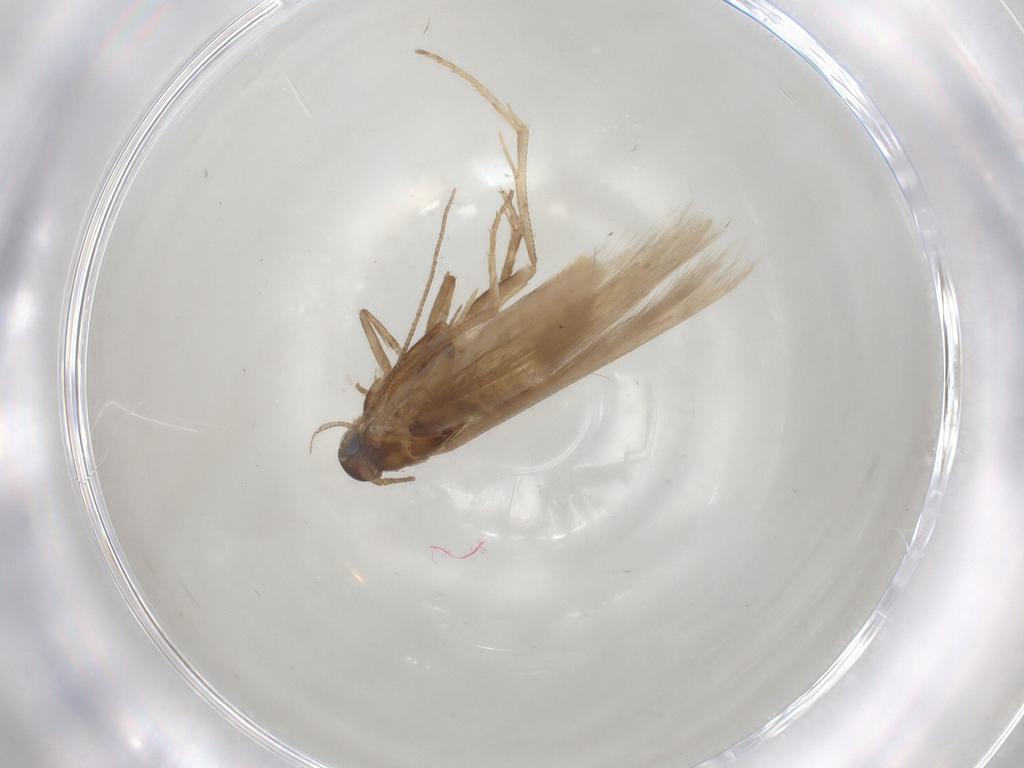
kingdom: Animalia
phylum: Arthropoda
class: Insecta
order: Lepidoptera
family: Gelechiidae
